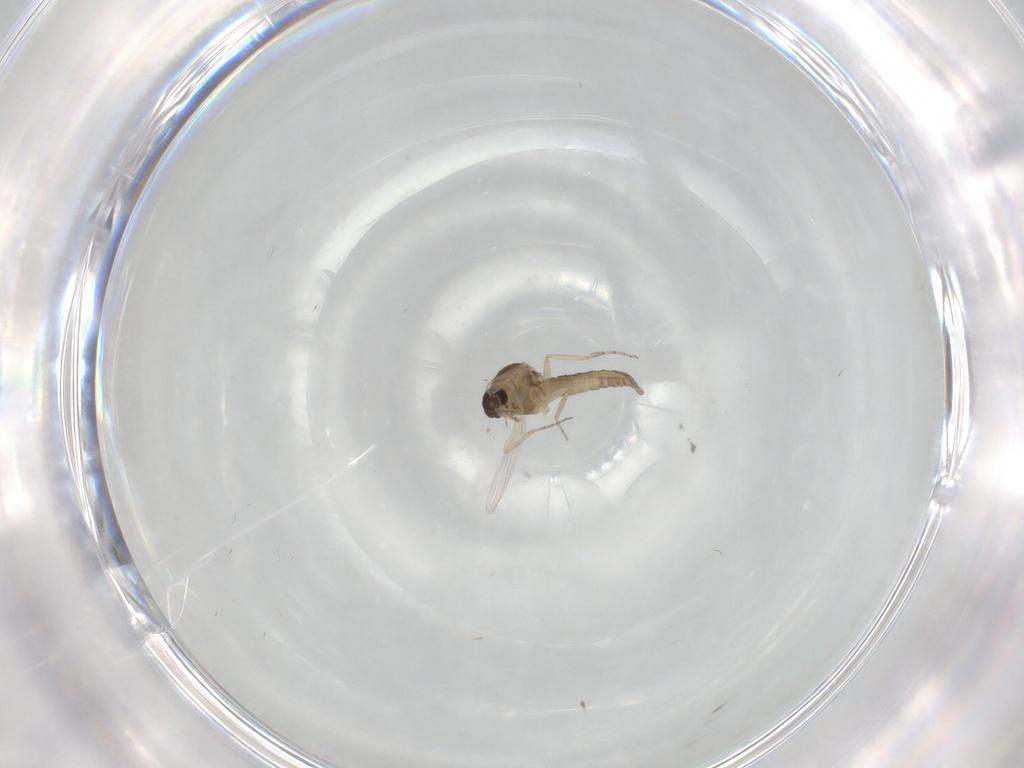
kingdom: Animalia
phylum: Arthropoda
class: Insecta
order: Diptera
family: Ceratopogonidae
